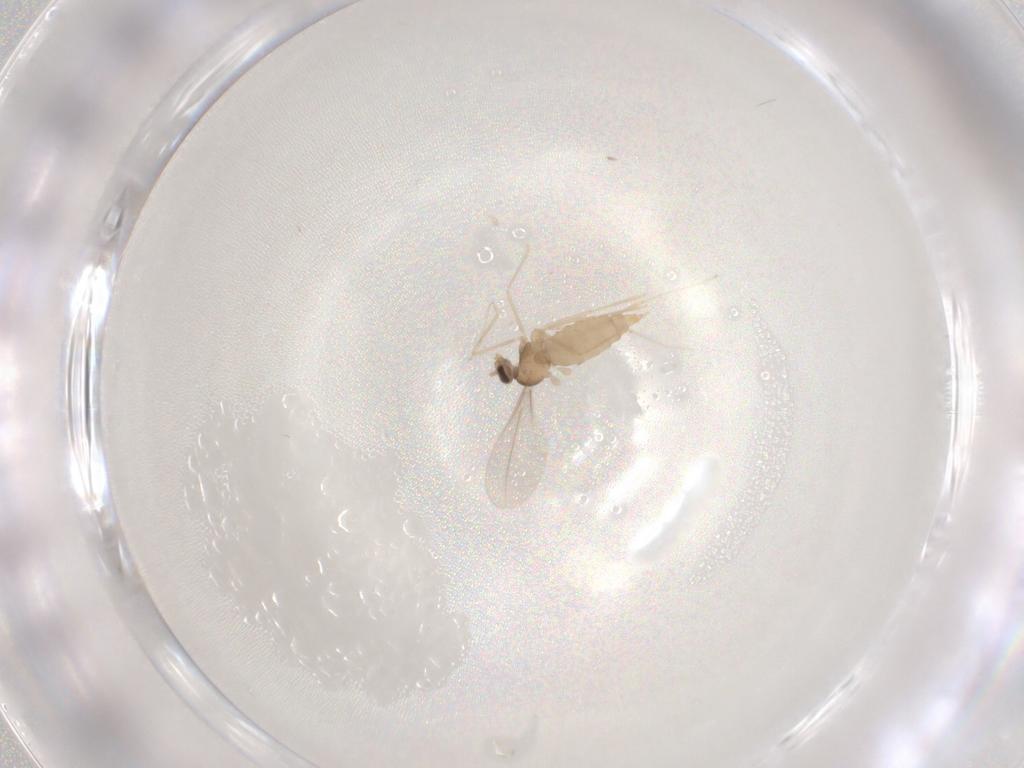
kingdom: Animalia
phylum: Arthropoda
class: Insecta
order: Diptera
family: Cecidomyiidae
